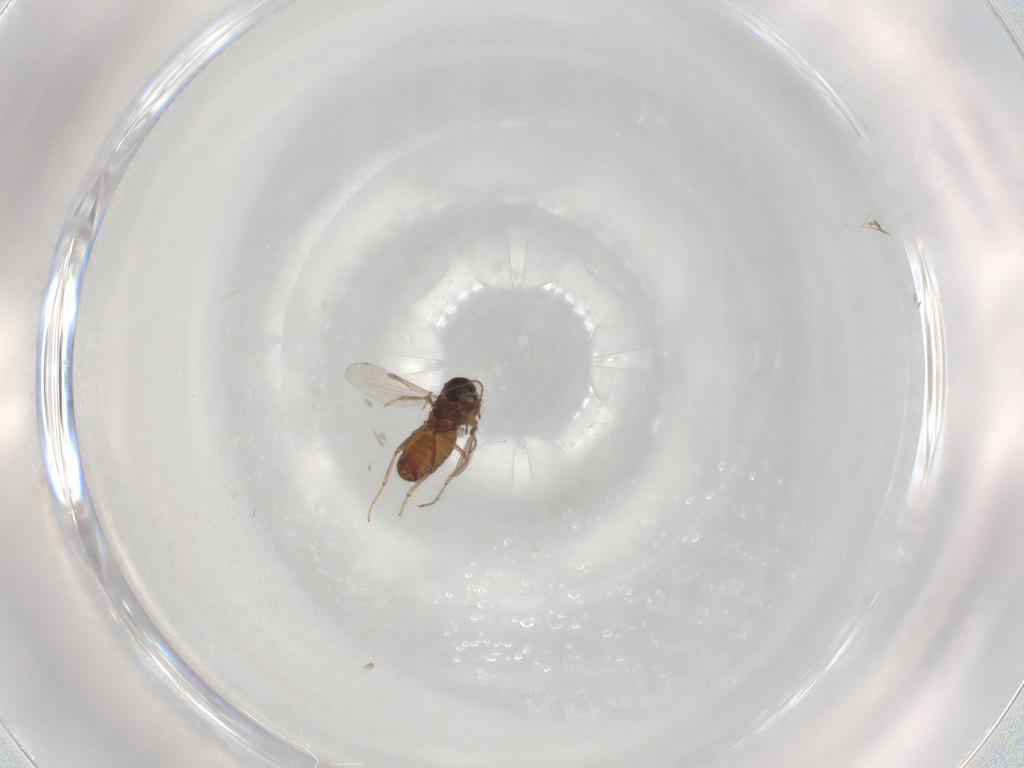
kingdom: Animalia
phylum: Arthropoda
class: Insecta
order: Diptera
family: Ceratopogonidae
